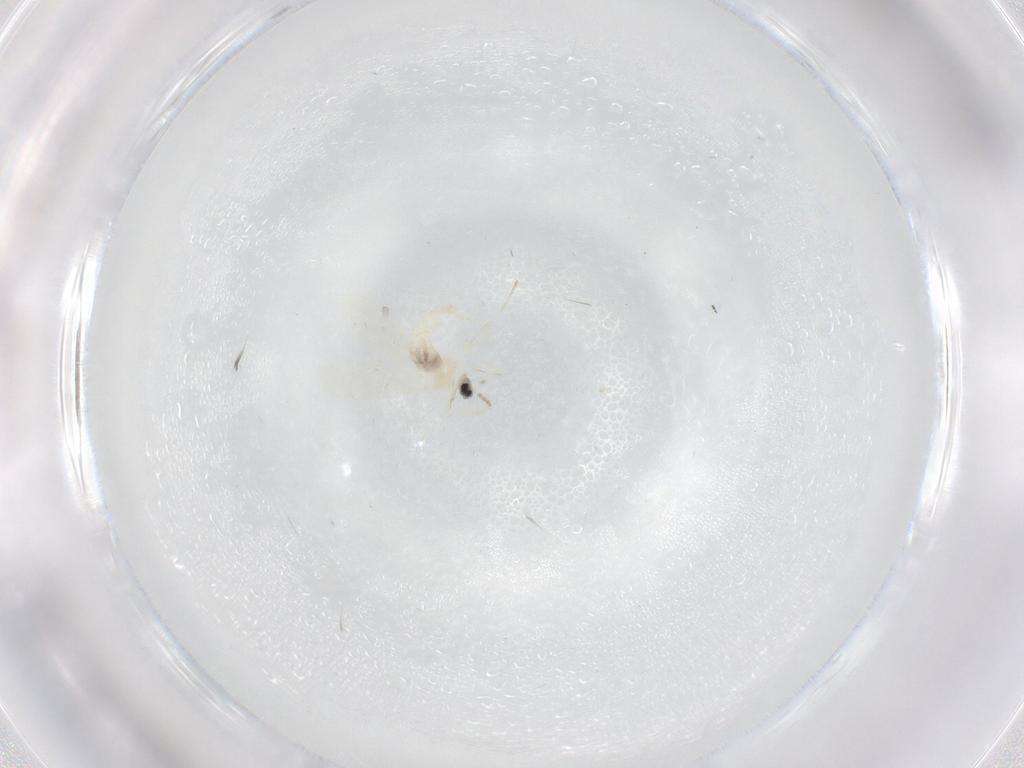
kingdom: Animalia
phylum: Arthropoda
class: Insecta
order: Diptera
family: Cecidomyiidae
